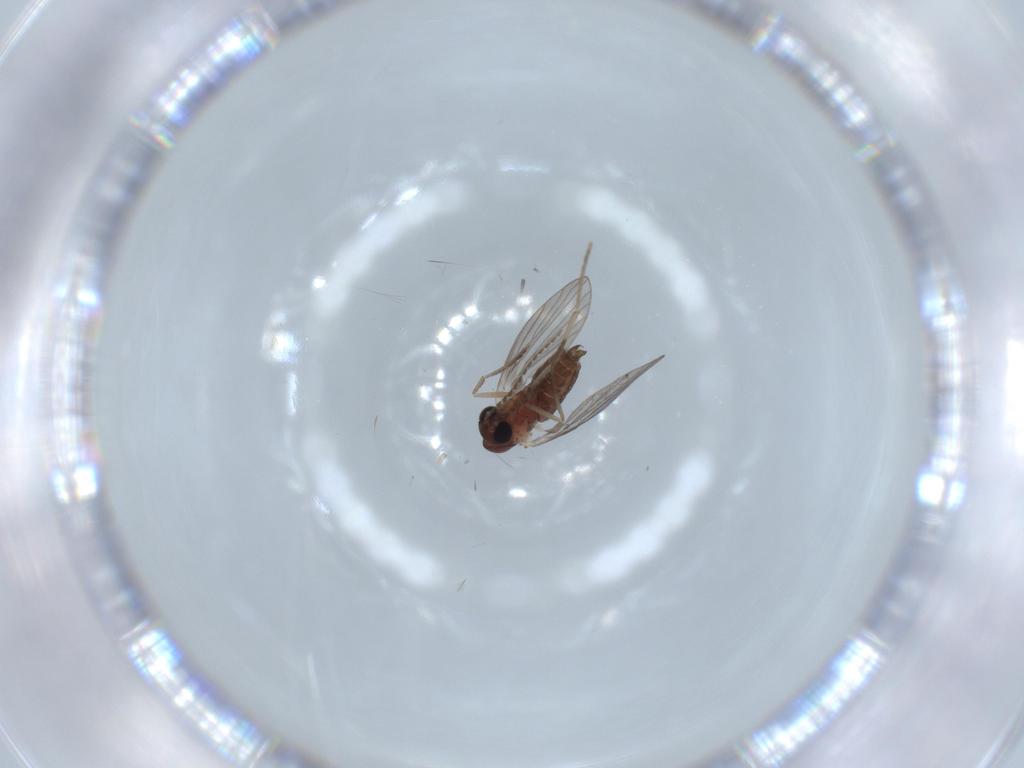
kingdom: Animalia
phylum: Arthropoda
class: Insecta
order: Diptera
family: Psychodidae
